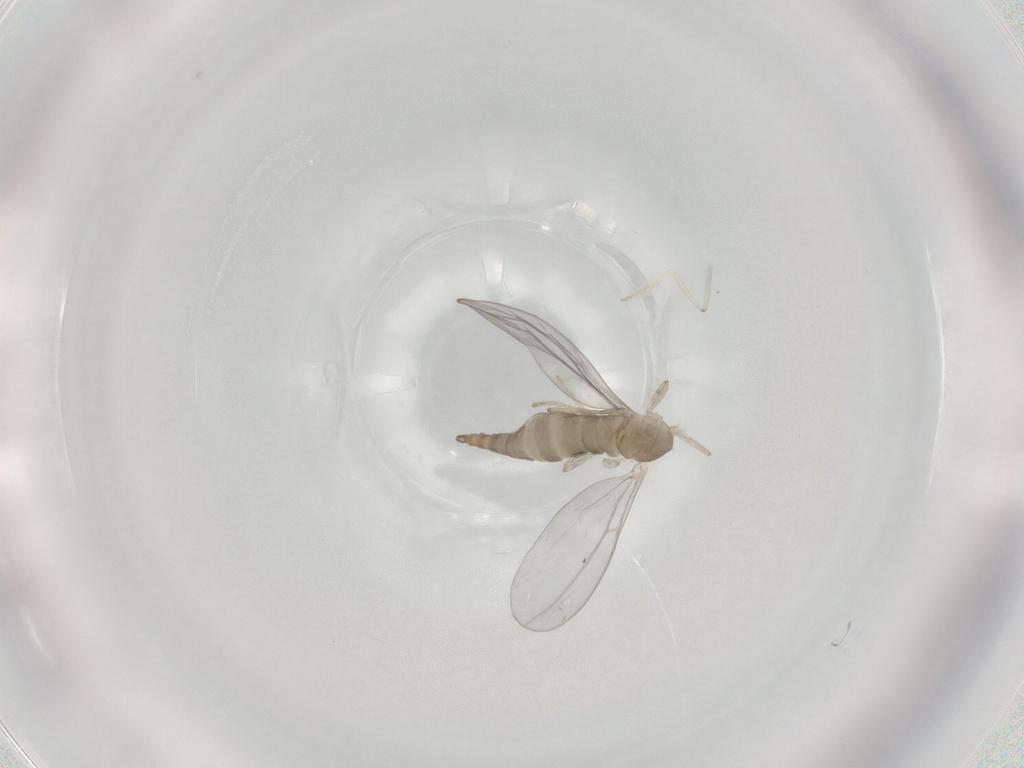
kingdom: Animalia
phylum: Arthropoda
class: Insecta
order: Diptera
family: Cecidomyiidae
